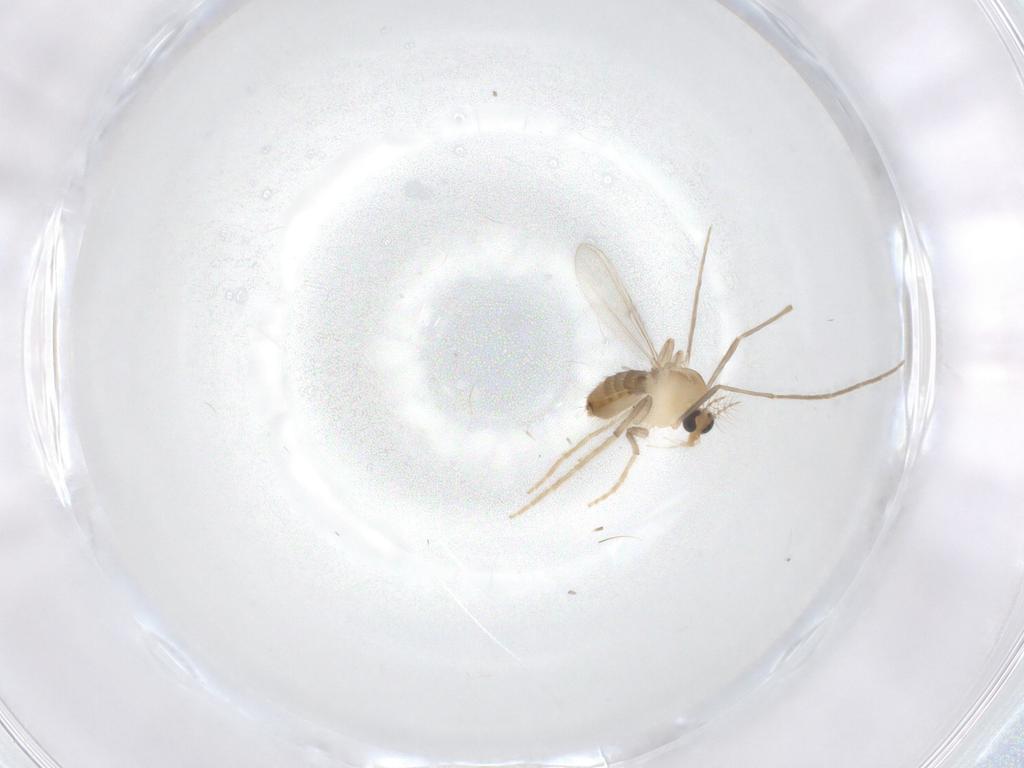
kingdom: Animalia
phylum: Arthropoda
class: Insecta
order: Diptera
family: Chironomidae
